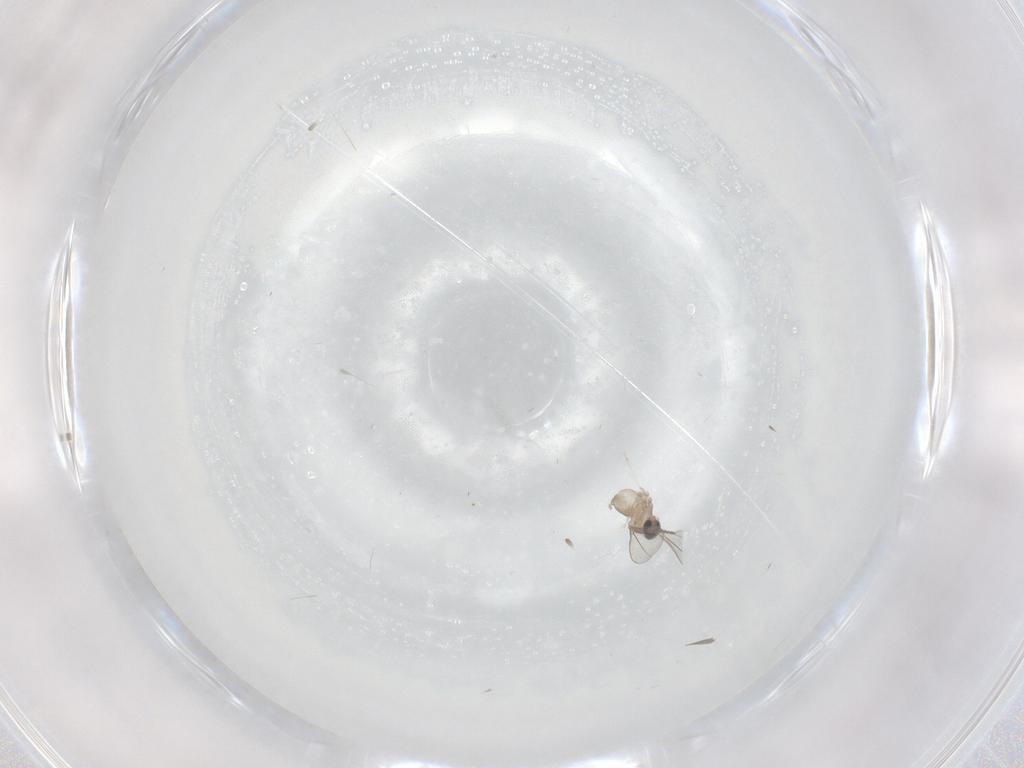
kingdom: Animalia
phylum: Arthropoda
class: Insecta
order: Diptera
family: Cecidomyiidae
